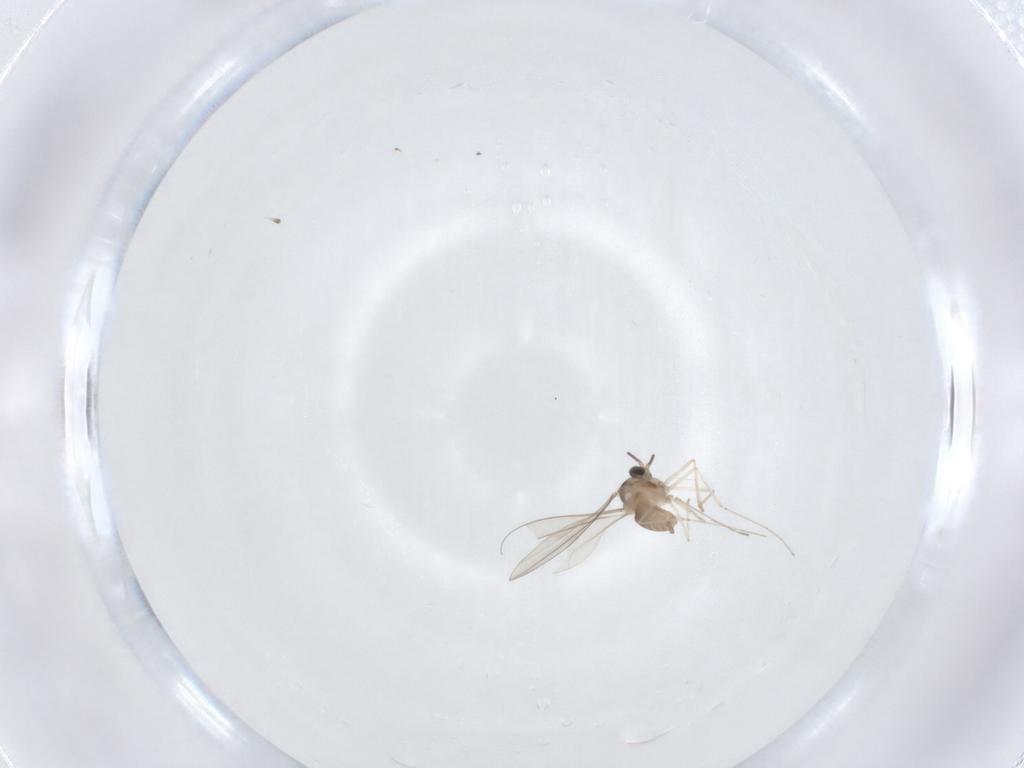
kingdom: Animalia
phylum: Arthropoda
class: Insecta
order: Diptera
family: Cecidomyiidae
